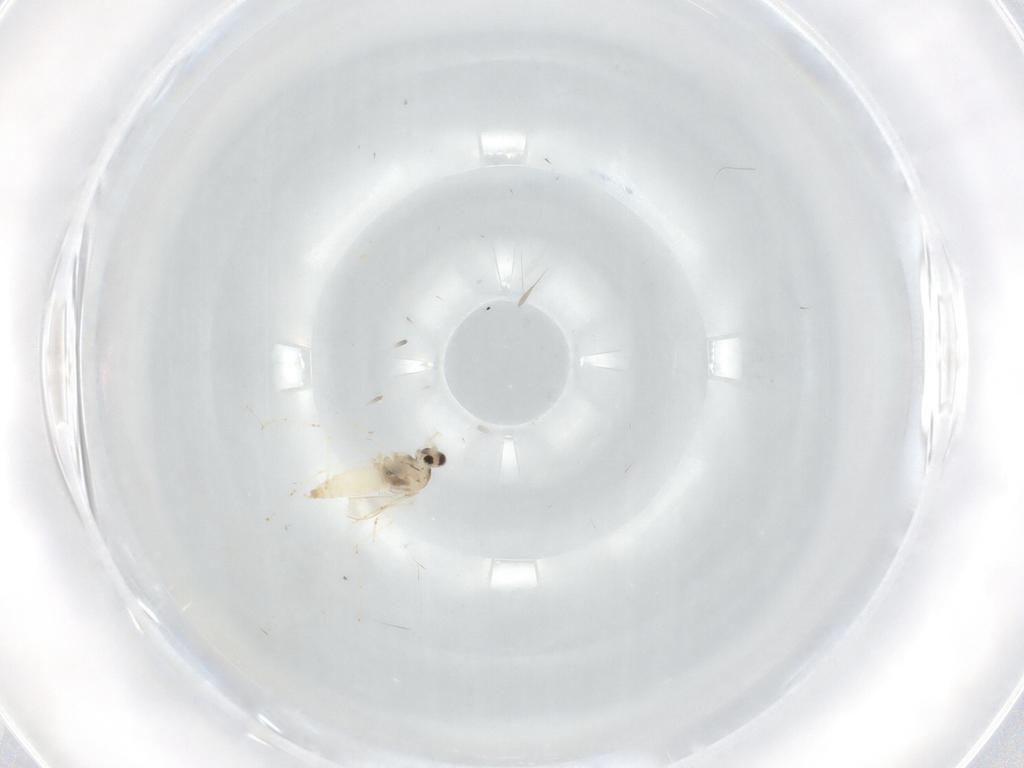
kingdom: Animalia
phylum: Arthropoda
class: Insecta
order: Diptera
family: Cecidomyiidae
